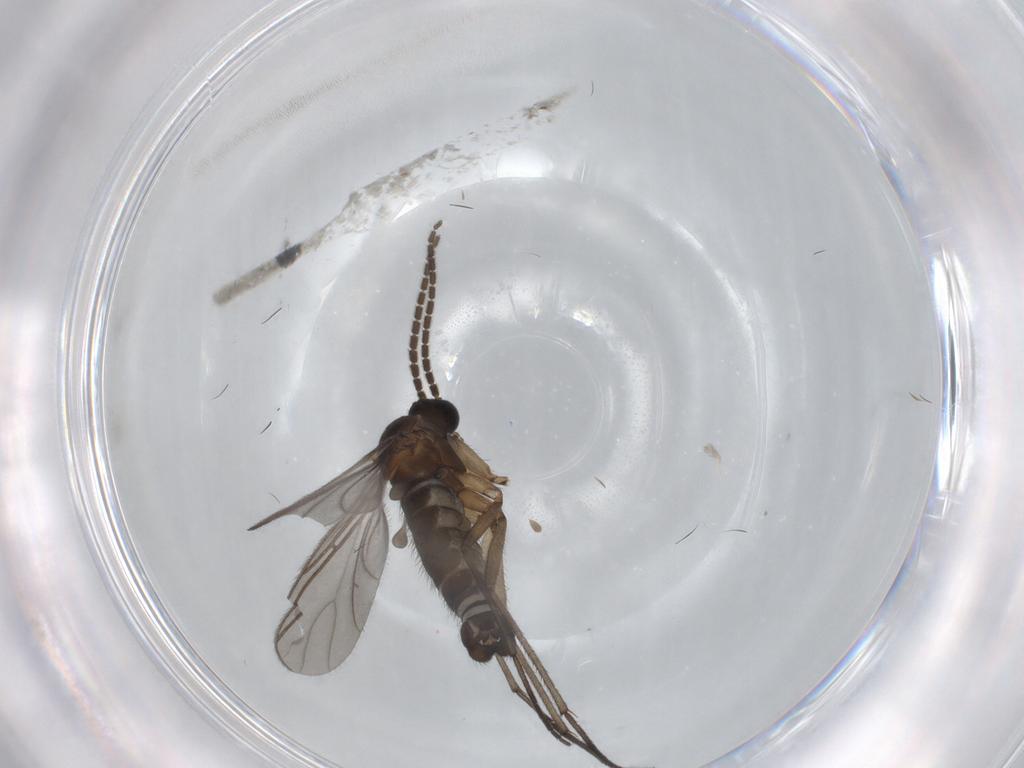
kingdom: Animalia
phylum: Arthropoda
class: Insecta
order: Diptera
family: Sciaridae
